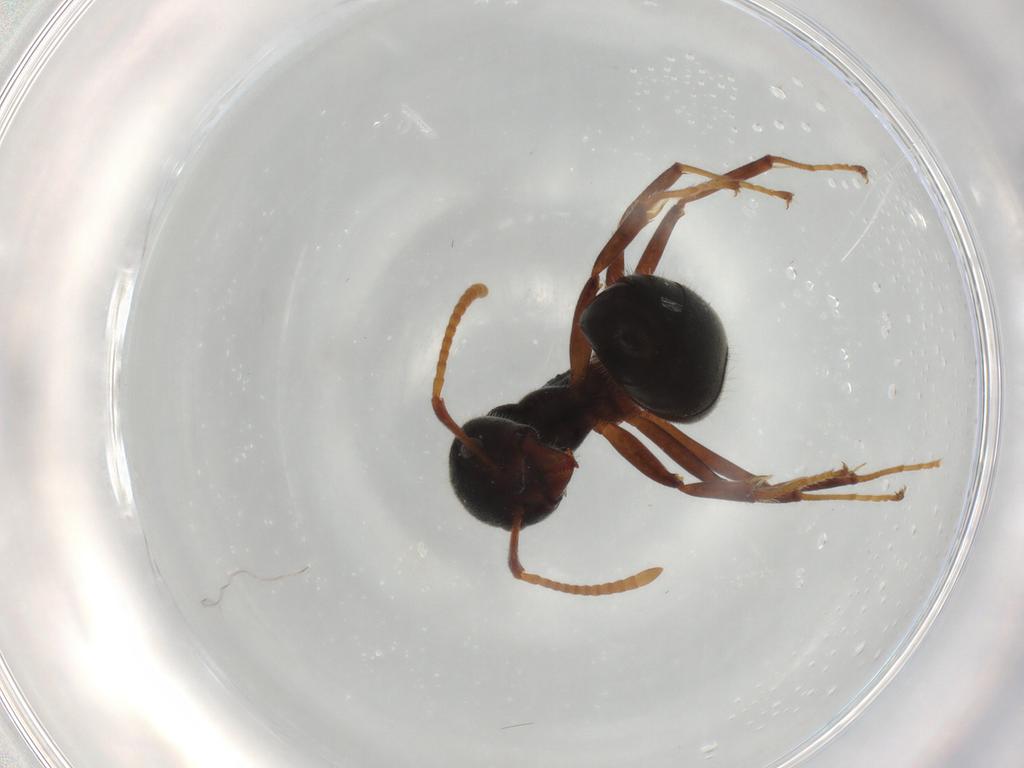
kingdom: Animalia
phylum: Arthropoda
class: Insecta
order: Hymenoptera
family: Formicidae
